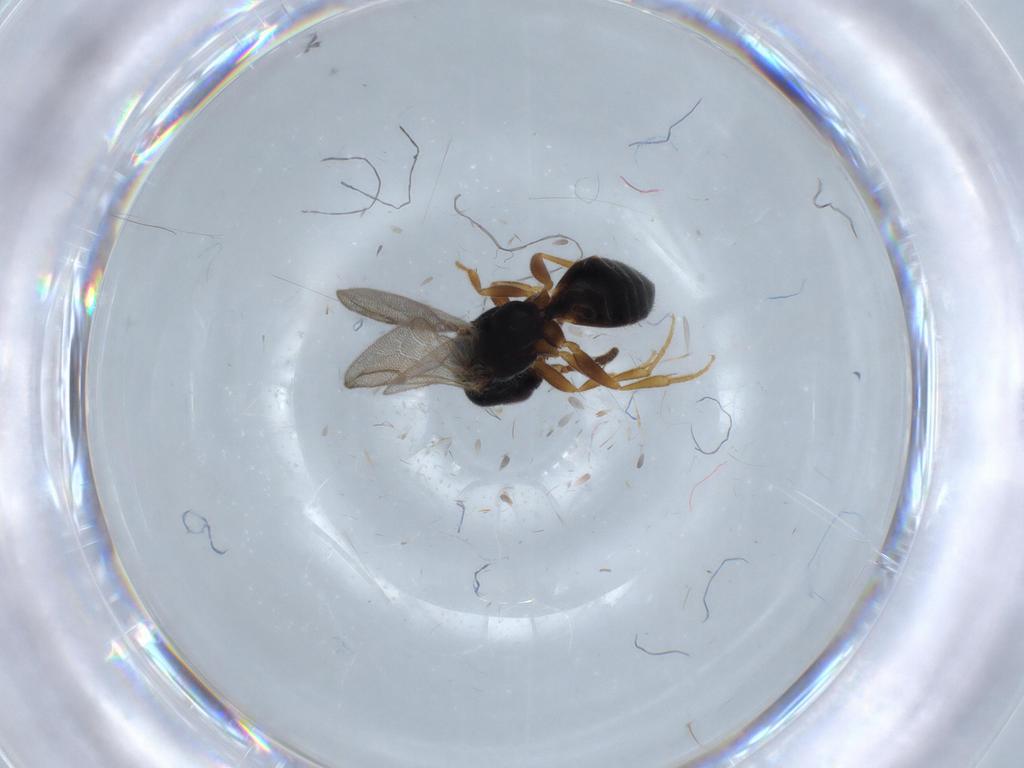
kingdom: Animalia
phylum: Arthropoda
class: Insecta
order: Hymenoptera
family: Bethylidae
